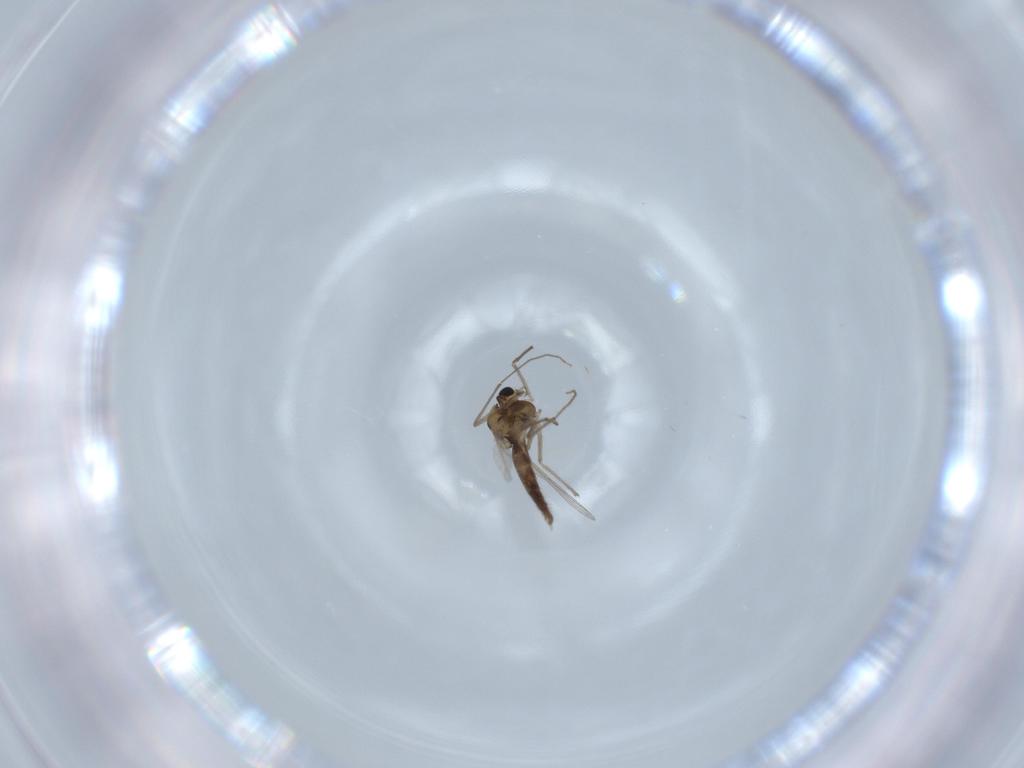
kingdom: Animalia
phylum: Arthropoda
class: Insecta
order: Diptera
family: Chironomidae
